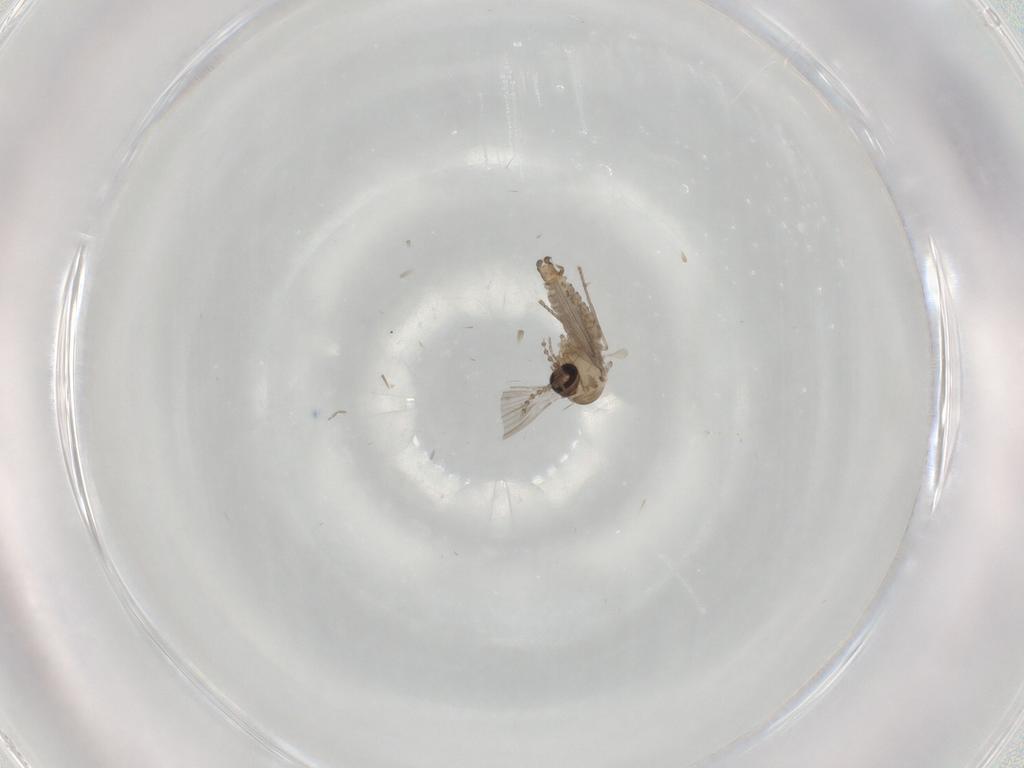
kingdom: Animalia
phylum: Arthropoda
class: Insecta
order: Diptera
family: Psychodidae
